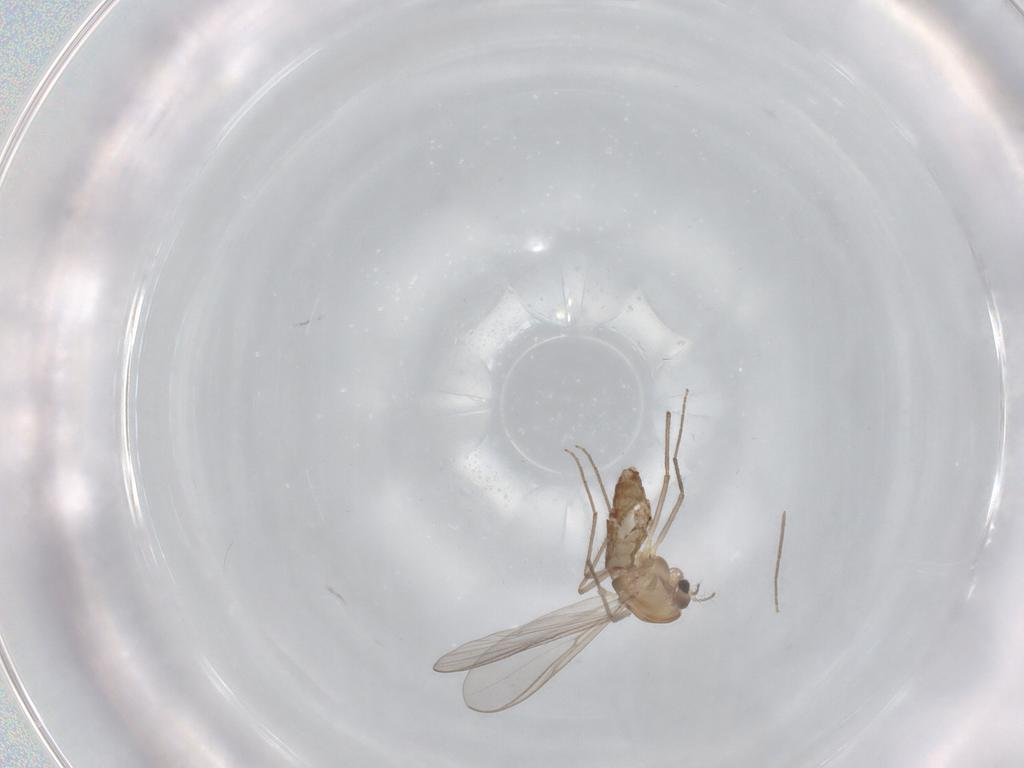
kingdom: Animalia
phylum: Arthropoda
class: Insecta
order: Diptera
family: Chironomidae
